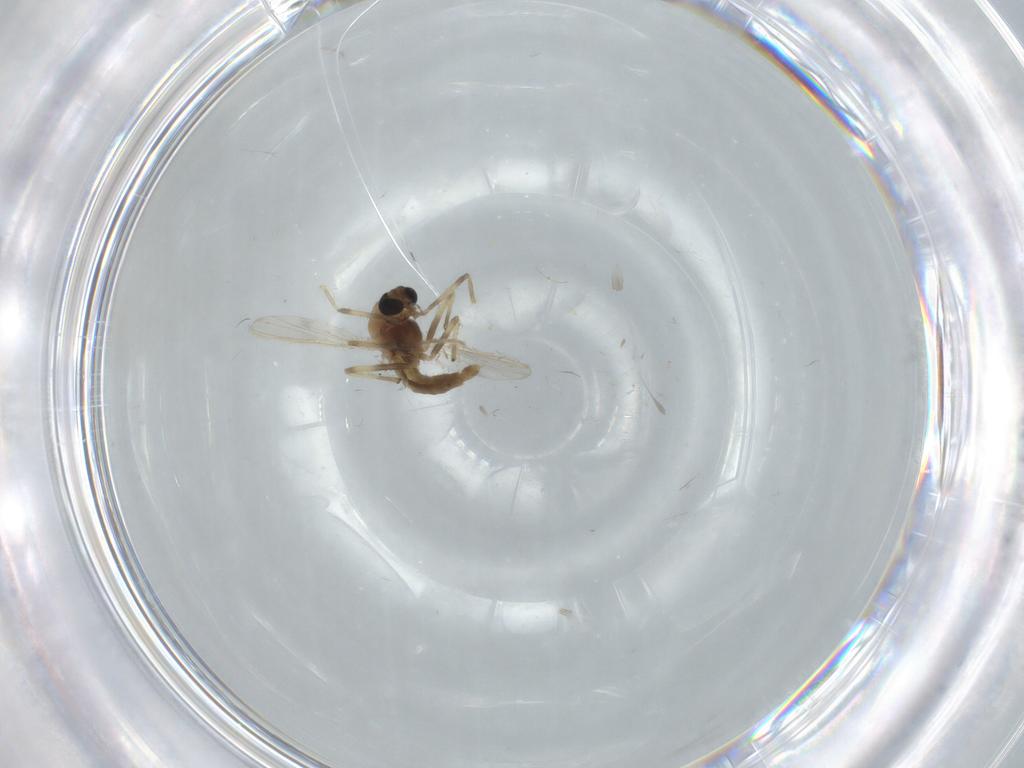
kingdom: Animalia
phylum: Arthropoda
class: Insecta
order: Diptera
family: Chironomidae
